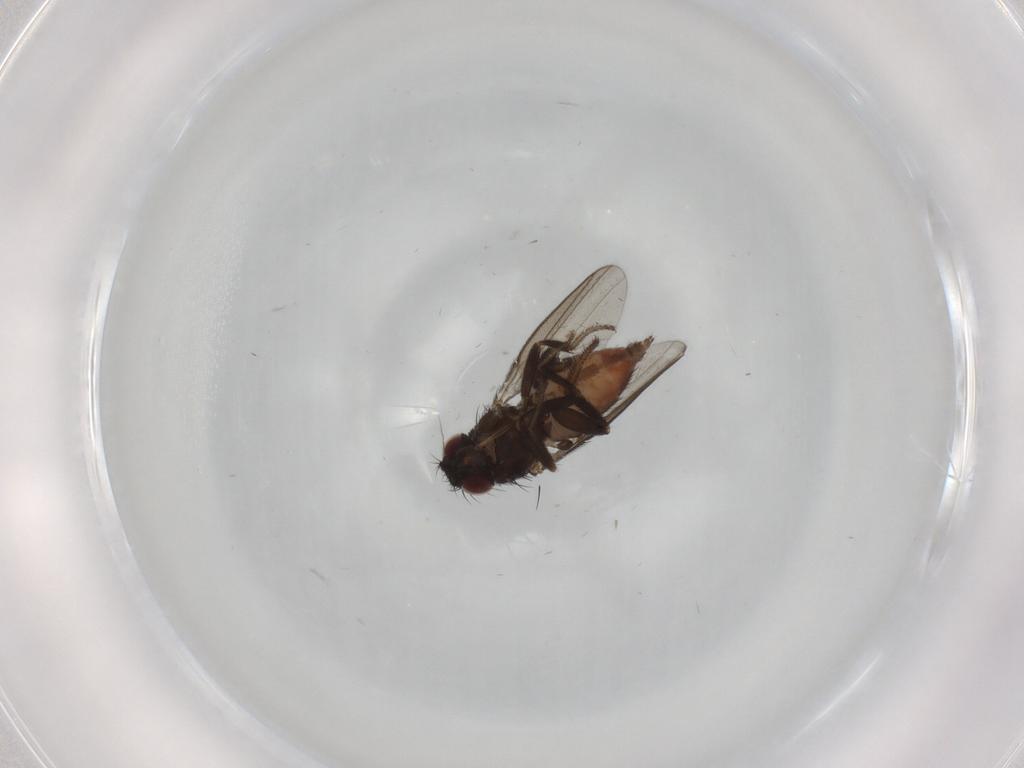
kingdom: Animalia
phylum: Arthropoda
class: Insecta
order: Diptera
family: Milichiidae
